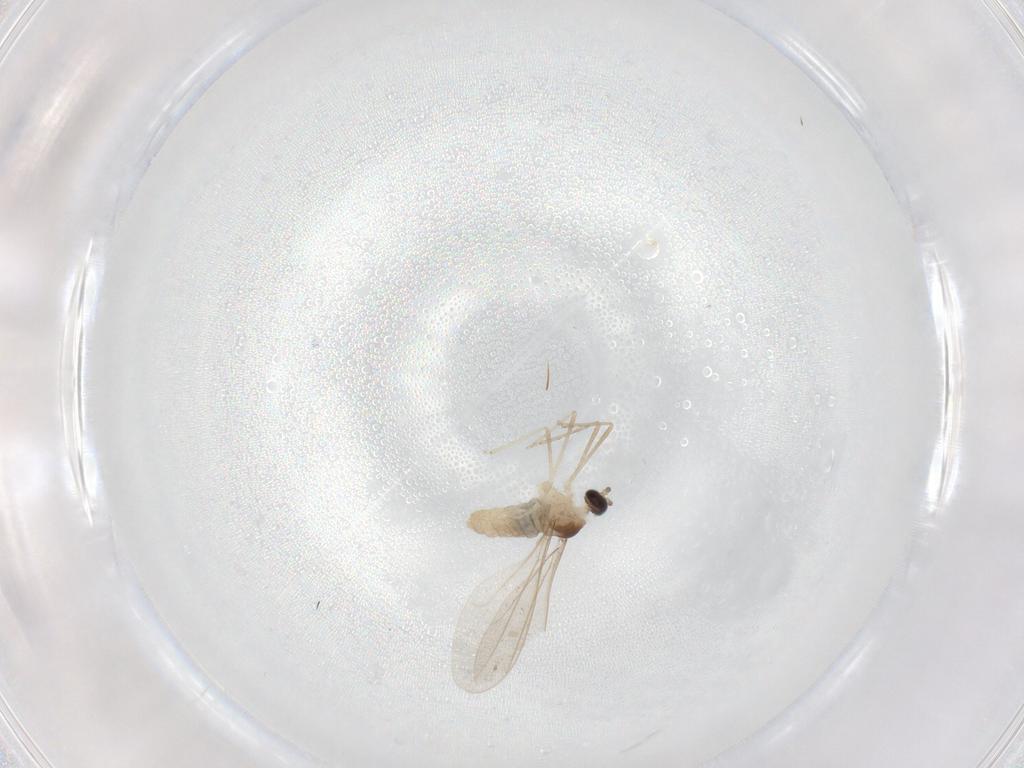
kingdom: Animalia
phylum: Arthropoda
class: Insecta
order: Diptera
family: Cecidomyiidae
